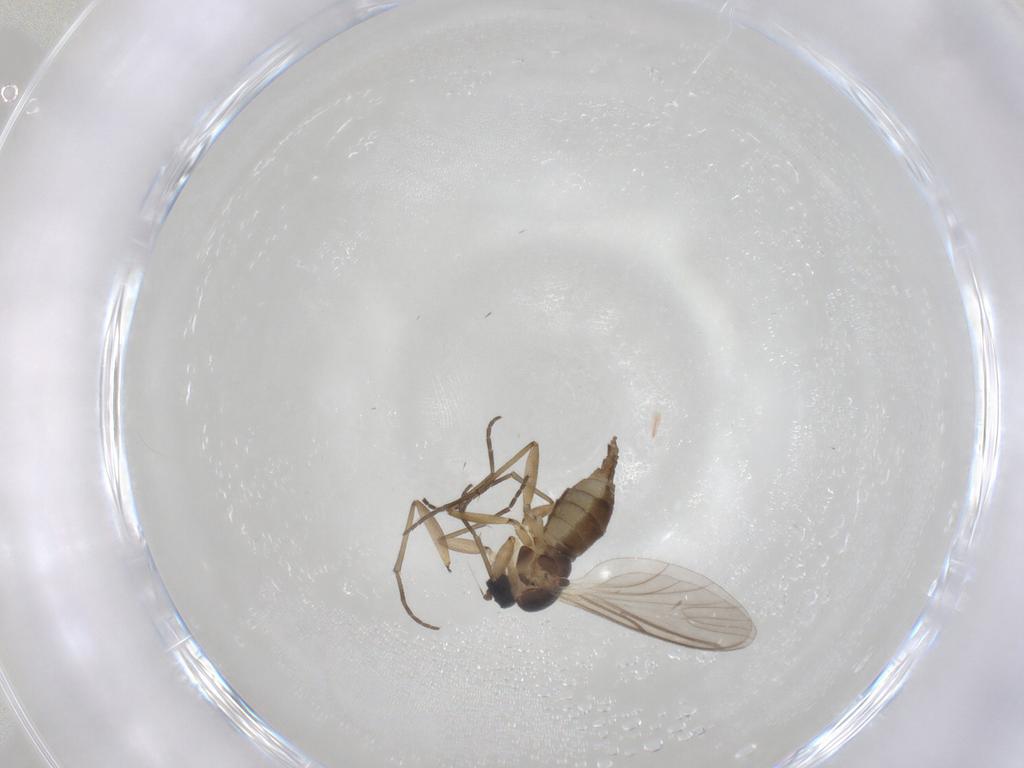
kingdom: Animalia
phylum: Arthropoda
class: Insecta
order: Diptera
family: Sciaridae
